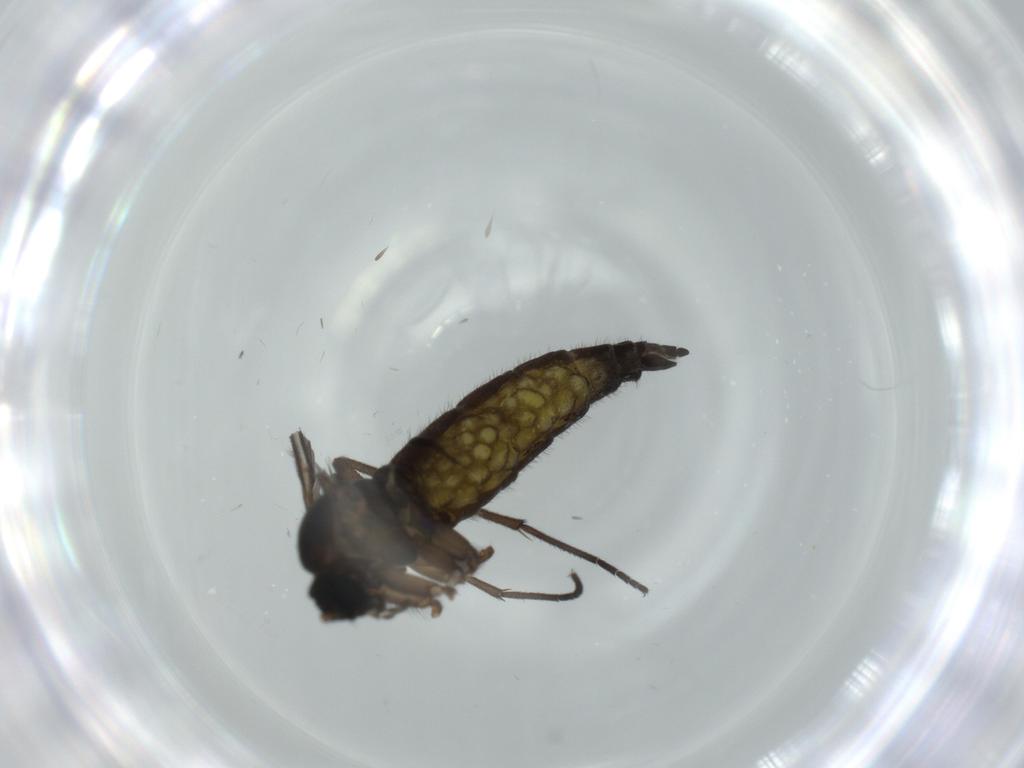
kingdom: Animalia
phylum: Arthropoda
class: Insecta
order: Diptera
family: Sciaridae
